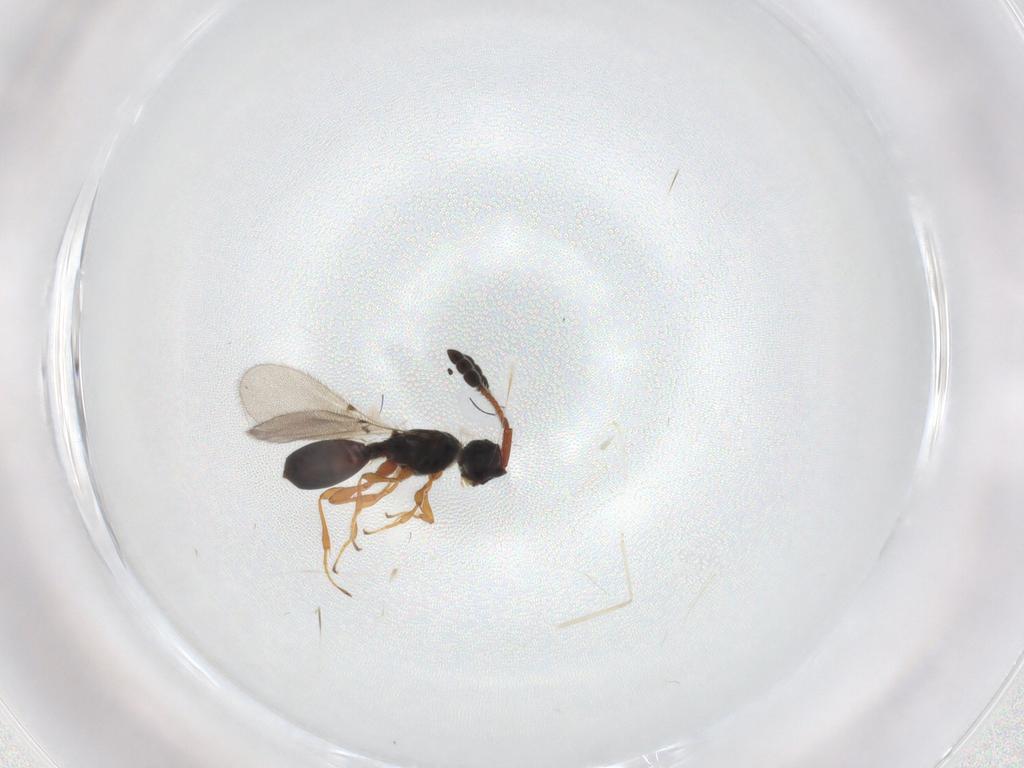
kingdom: Animalia
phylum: Arthropoda
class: Insecta
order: Hymenoptera
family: Diapriidae
